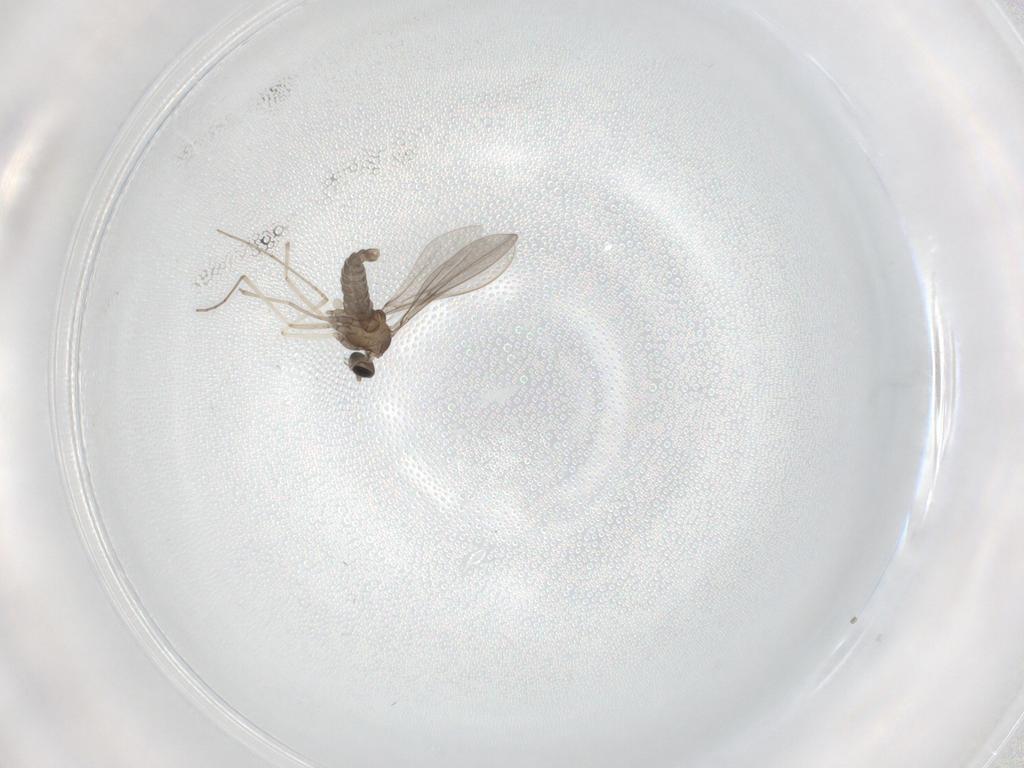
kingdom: Animalia
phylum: Arthropoda
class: Insecta
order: Diptera
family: Cecidomyiidae
